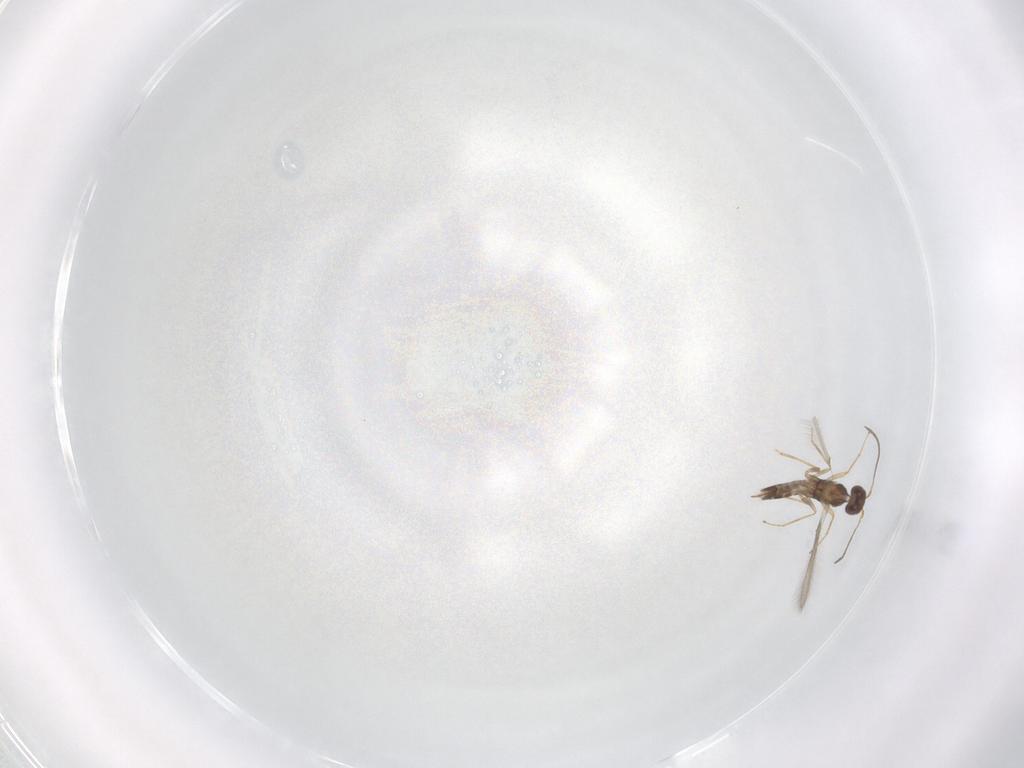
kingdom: Animalia
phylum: Arthropoda
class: Insecta
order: Hymenoptera
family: Mymaridae
